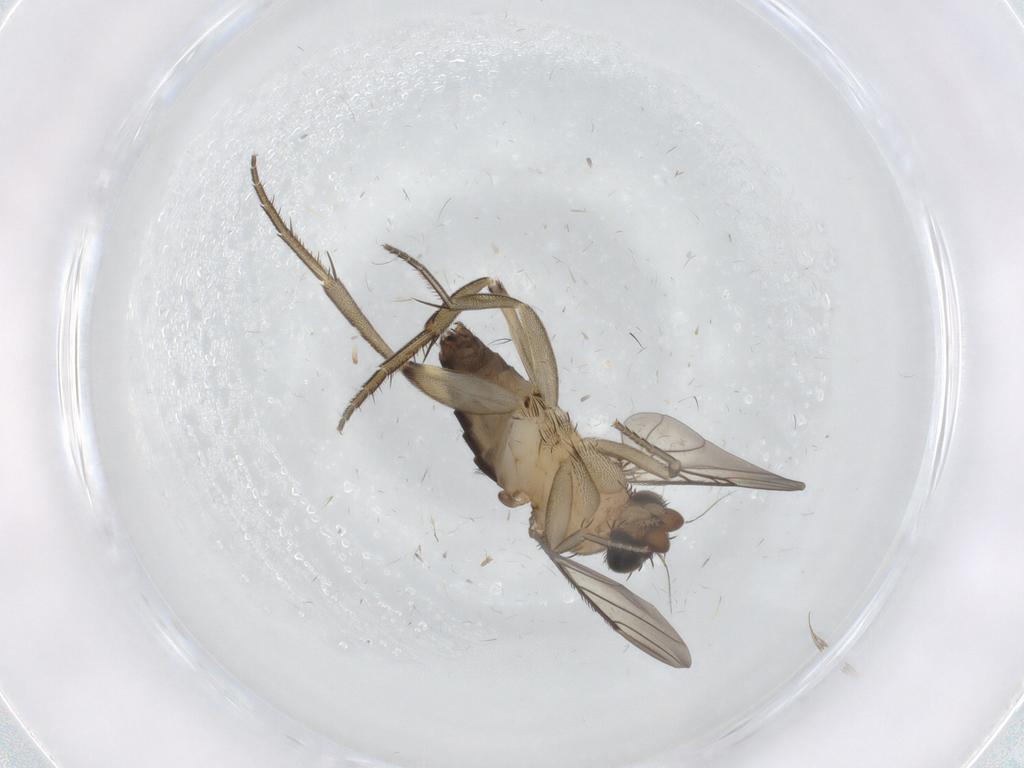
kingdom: Animalia
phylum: Arthropoda
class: Insecta
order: Diptera
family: Phoridae
